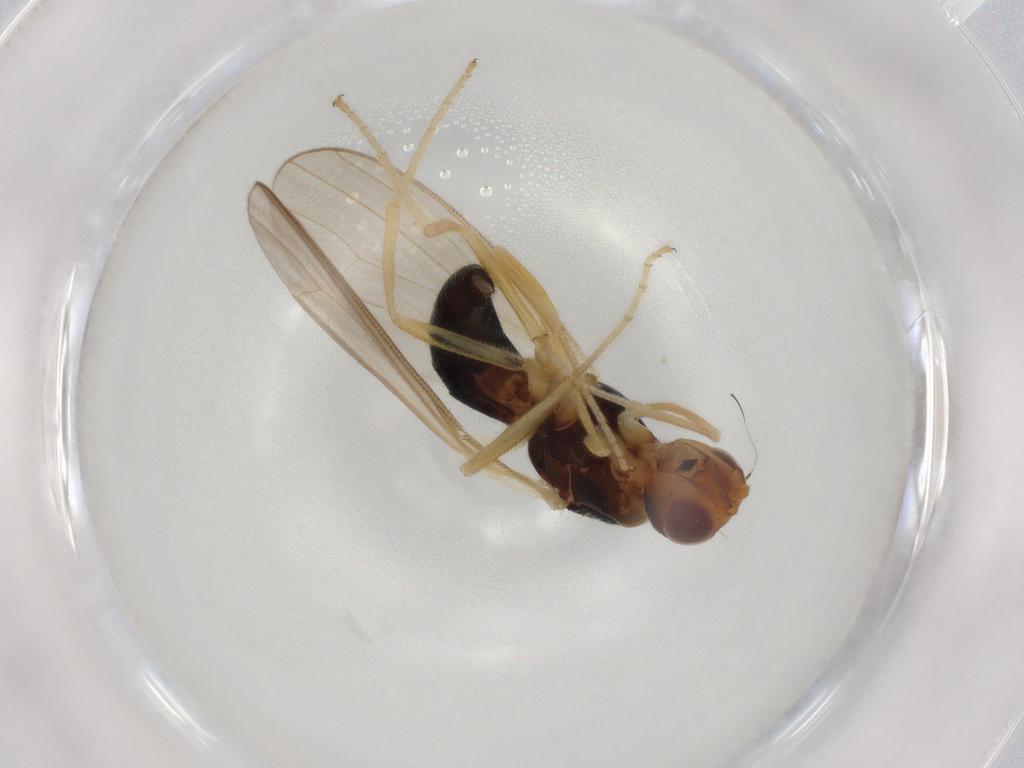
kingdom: Animalia
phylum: Arthropoda
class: Insecta
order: Diptera
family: Psilidae
